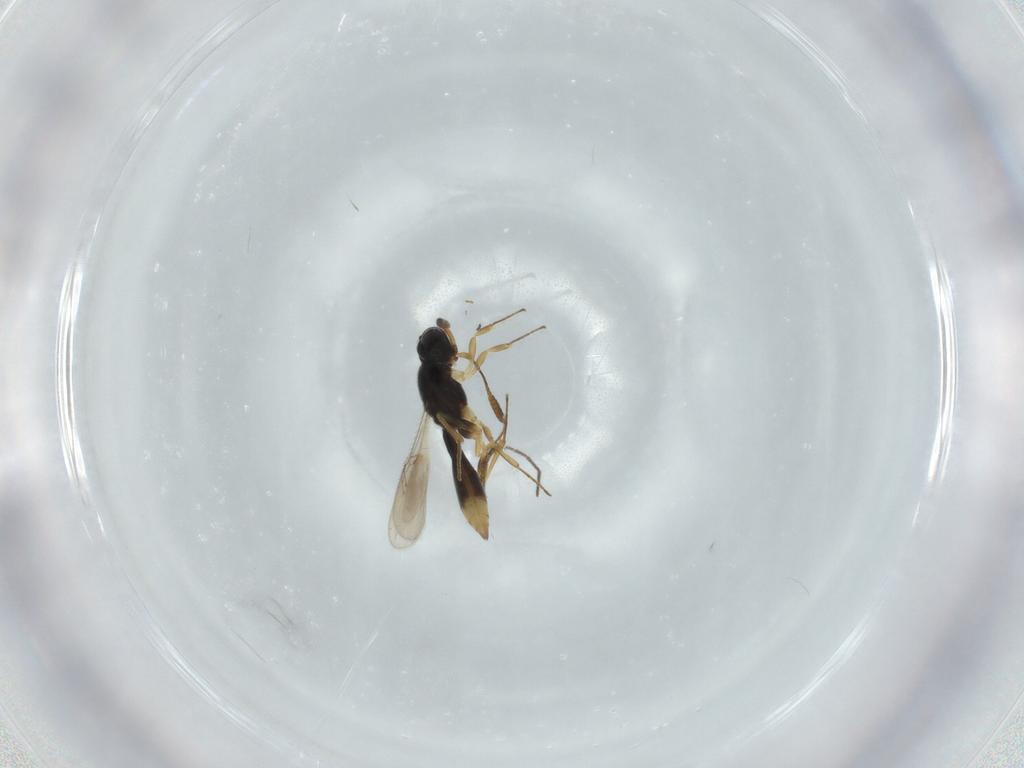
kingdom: Animalia
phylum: Arthropoda
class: Insecta
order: Hymenoptera
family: Scelionidae
